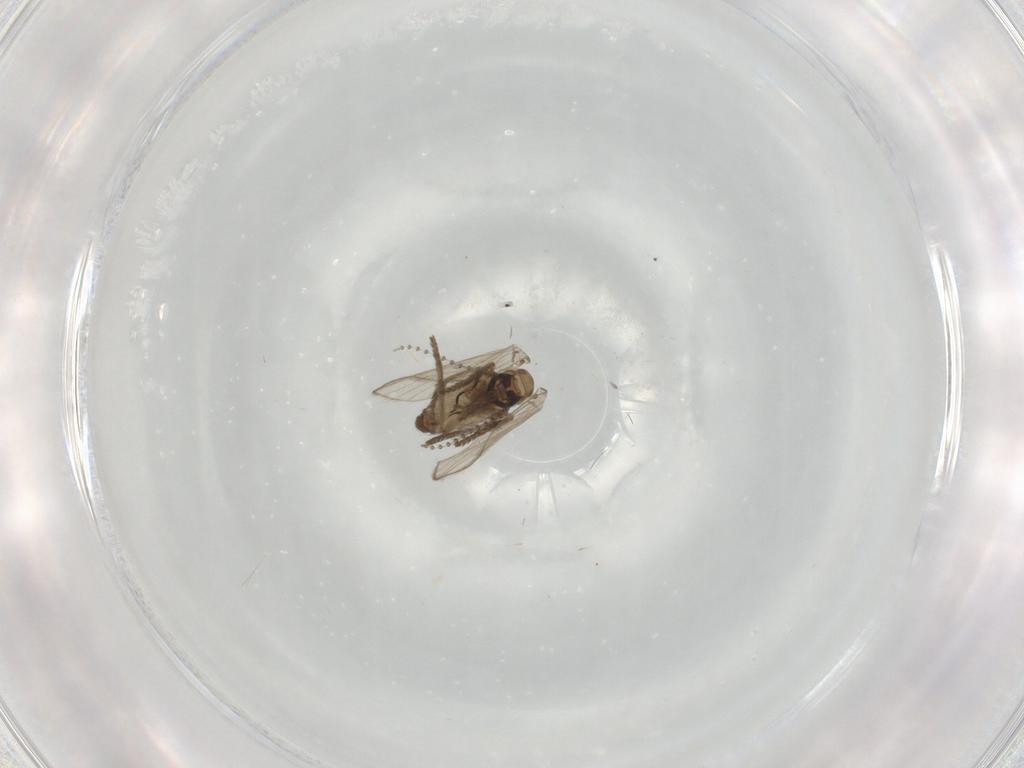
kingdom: Animalia
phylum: Arthropoda
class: Insecta
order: Diptera
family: Psychodidae
